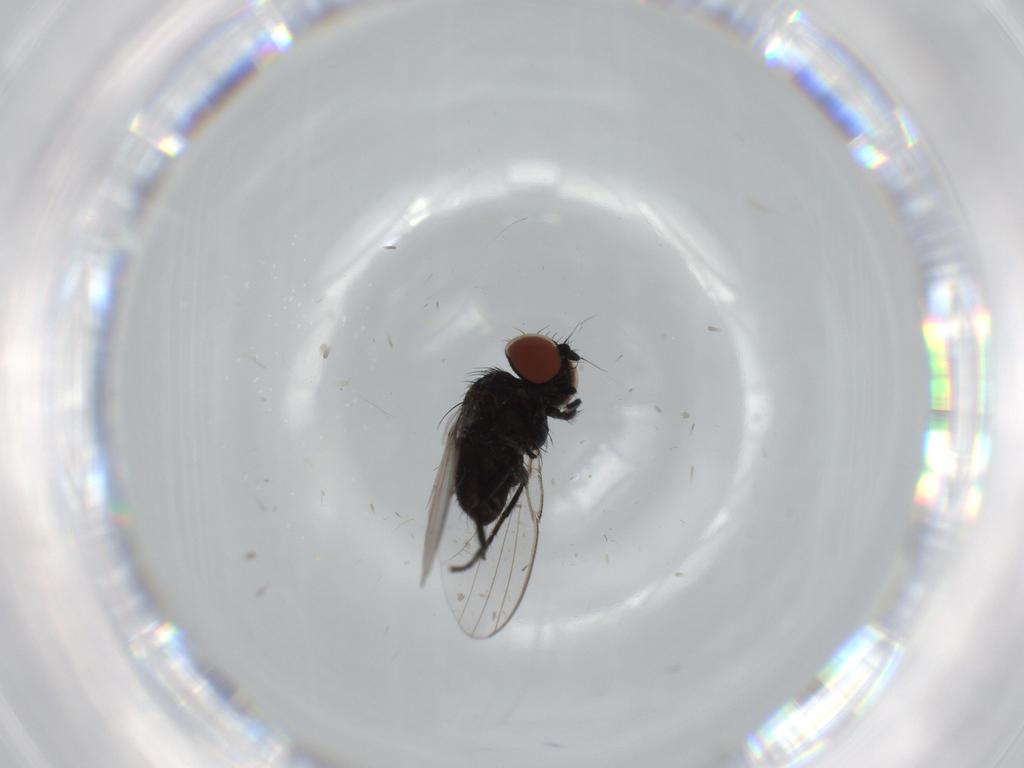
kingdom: Animalia
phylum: Arthropoda
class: Insecta
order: Diptera
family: Milichiidae
